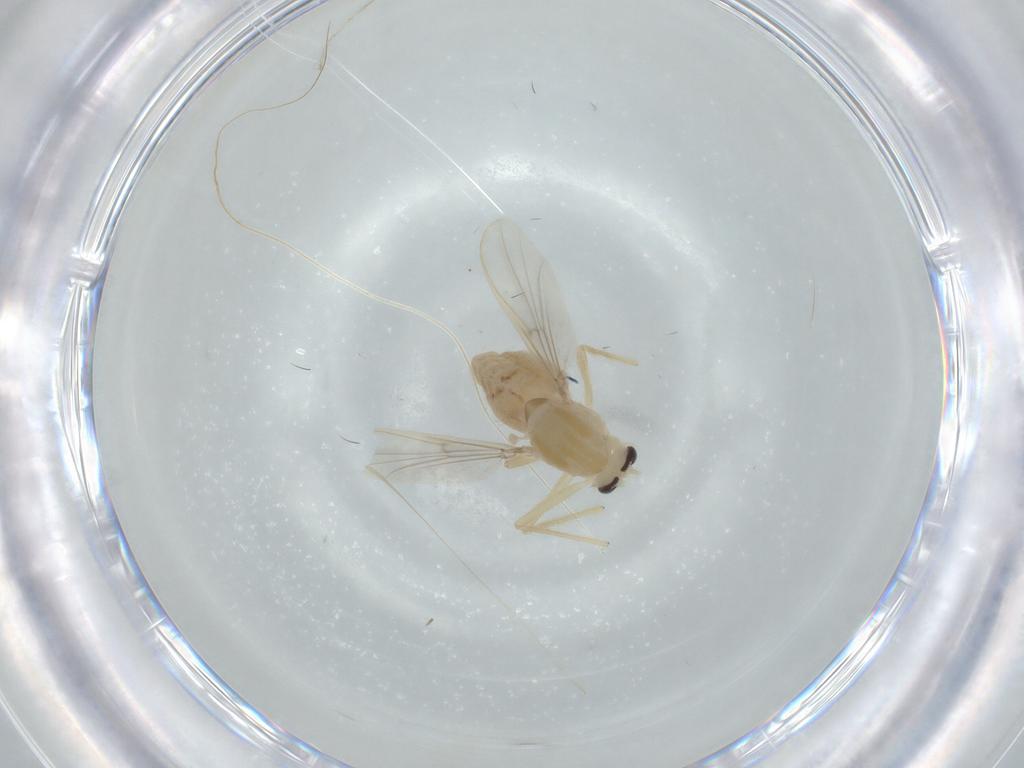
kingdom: Animalia
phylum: Arthropoda
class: Insecta
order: Diptera
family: Chironomidae
